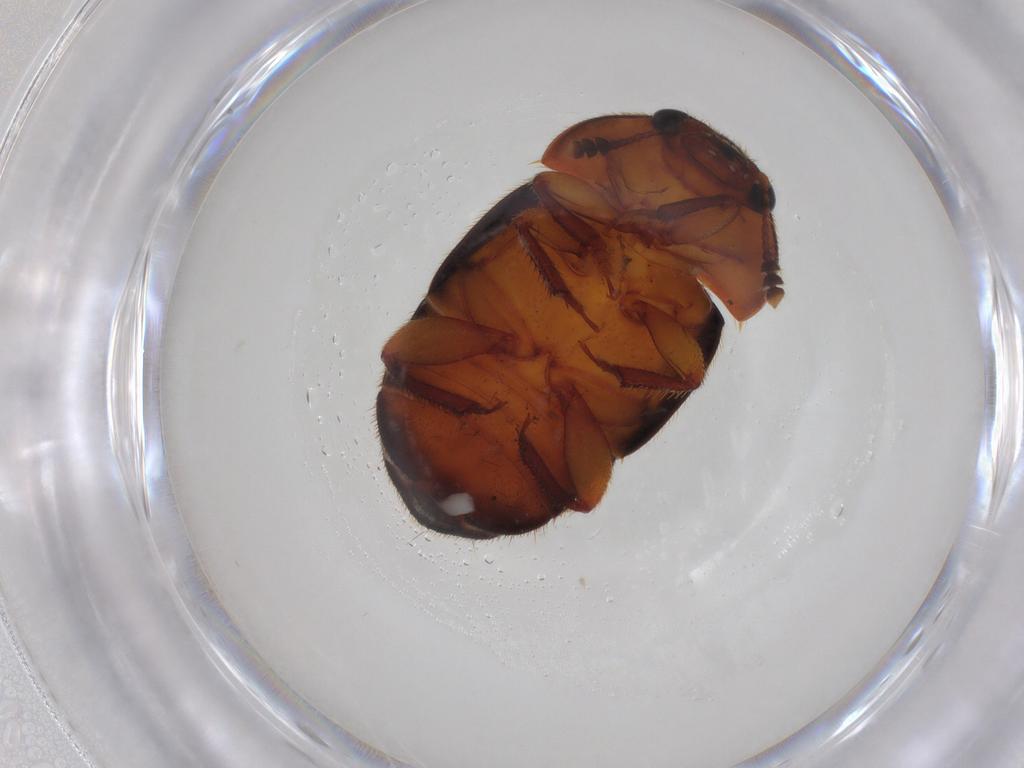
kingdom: Animalia
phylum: Arthropoda
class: Insecta
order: Coleoptera
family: Nitidulidae
